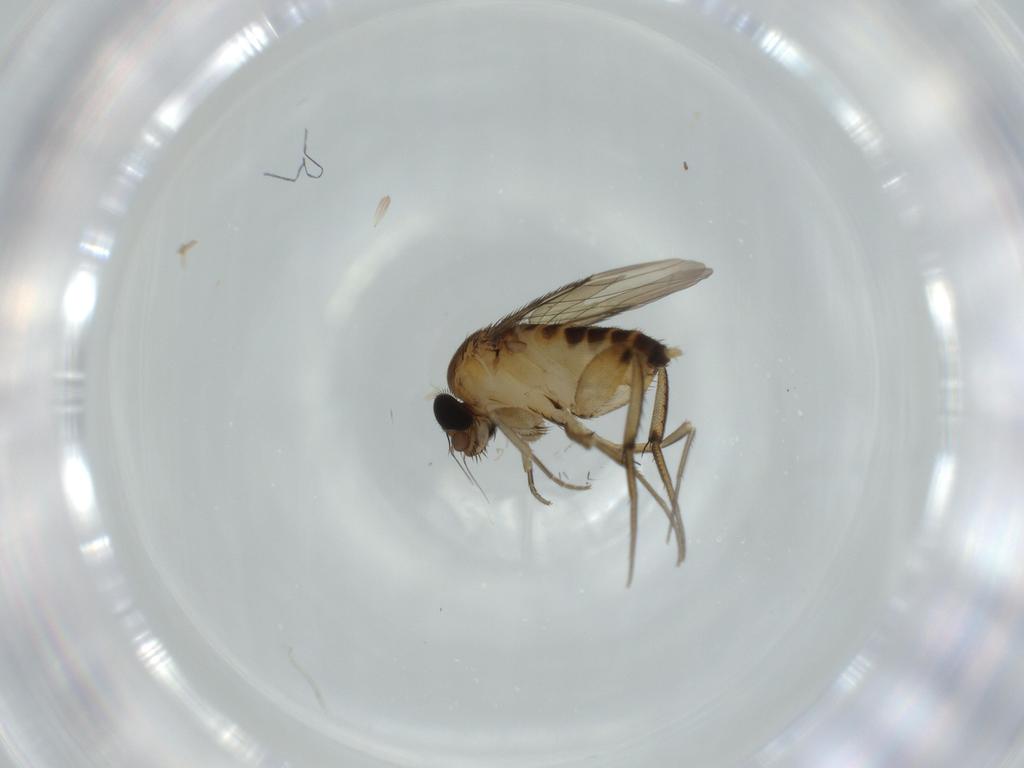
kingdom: Animalia
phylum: Arthropoda
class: Insecta
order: Diptera
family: Phoridae
